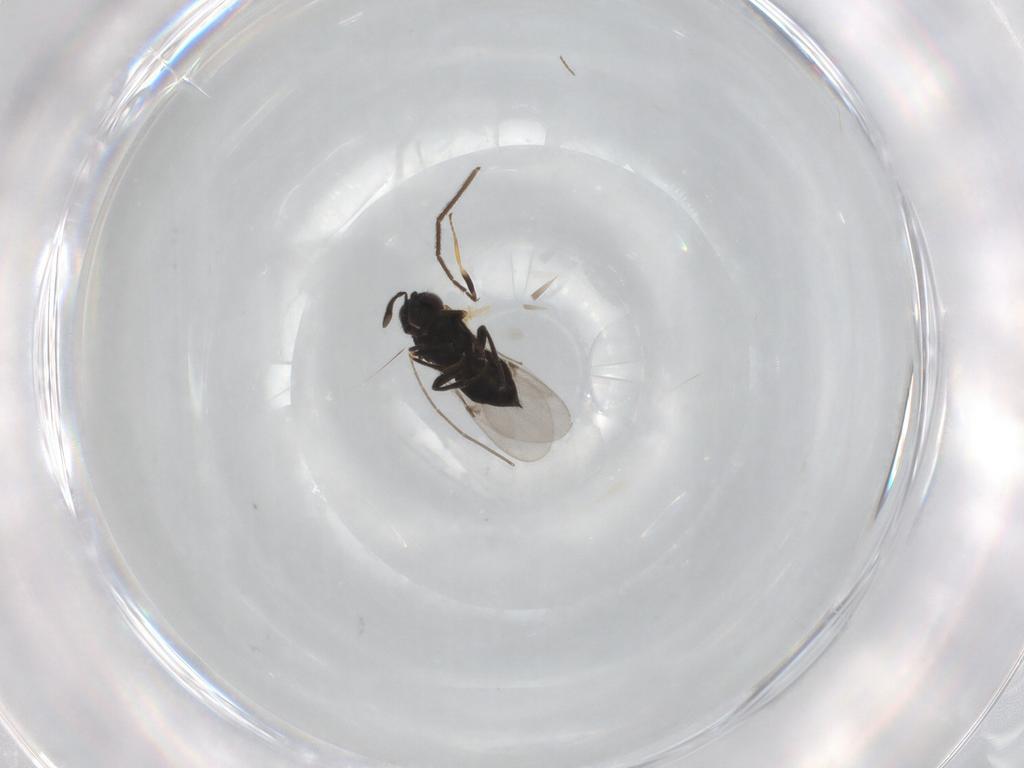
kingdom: Animalia
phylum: Arthropoda
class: Insecta
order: Hymenoptera
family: Encyrtidae
